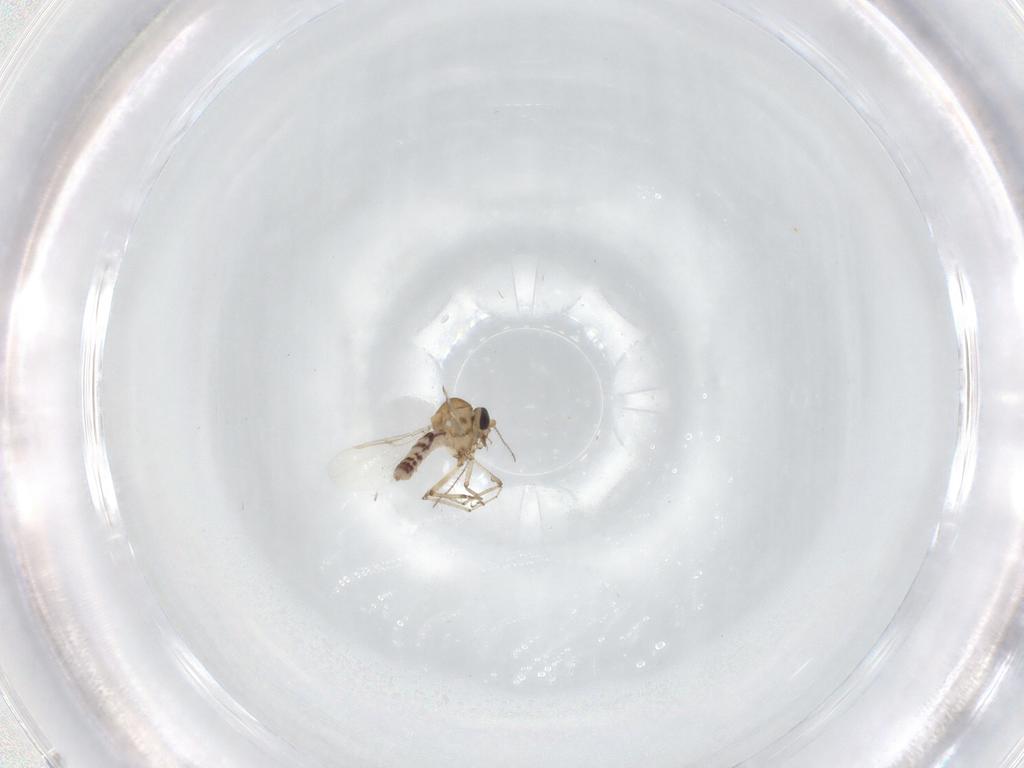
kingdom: Animalia
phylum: Arthropoda
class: Insecta
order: Diptera
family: Ceratopogonidae
